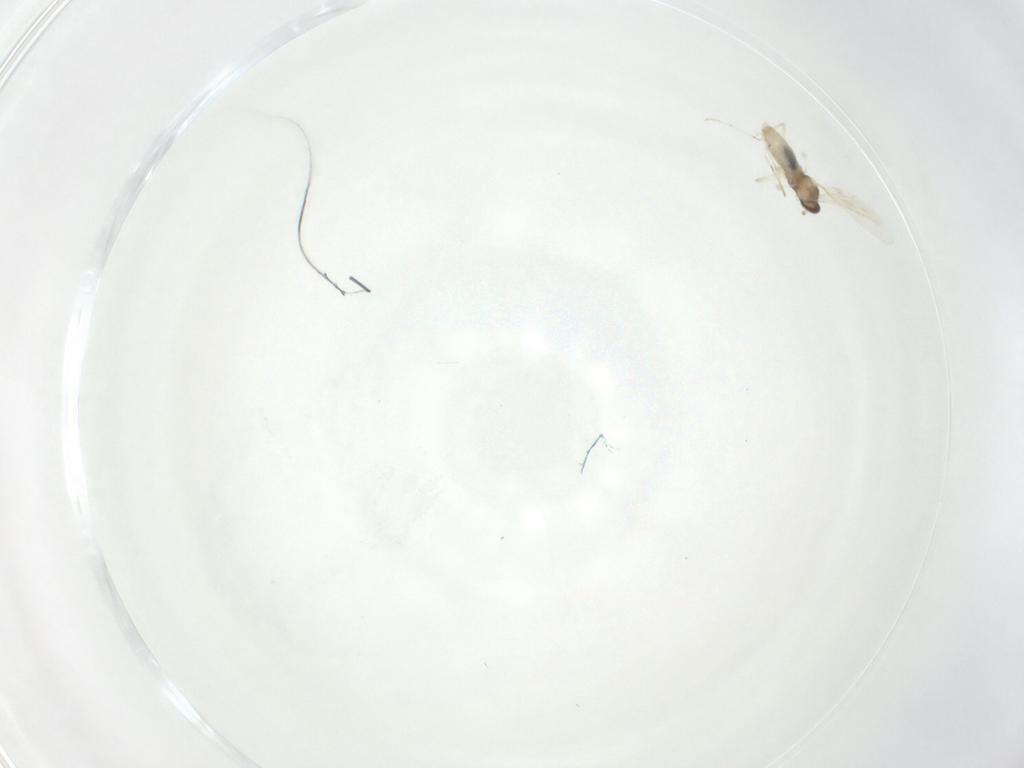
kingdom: Animalia
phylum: Arthropoda
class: Insecta
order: Diptera
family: Cecidomyiidae
